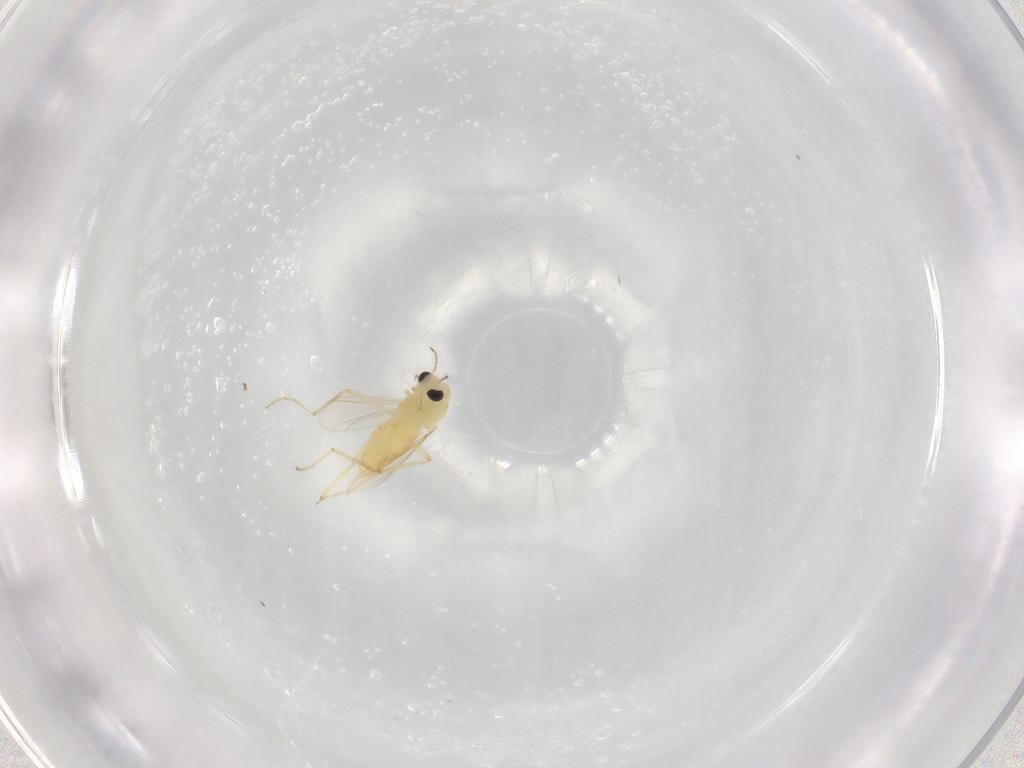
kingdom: Animalia
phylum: Arthropoda
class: Insecta
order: Diptera
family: Chironomidae
